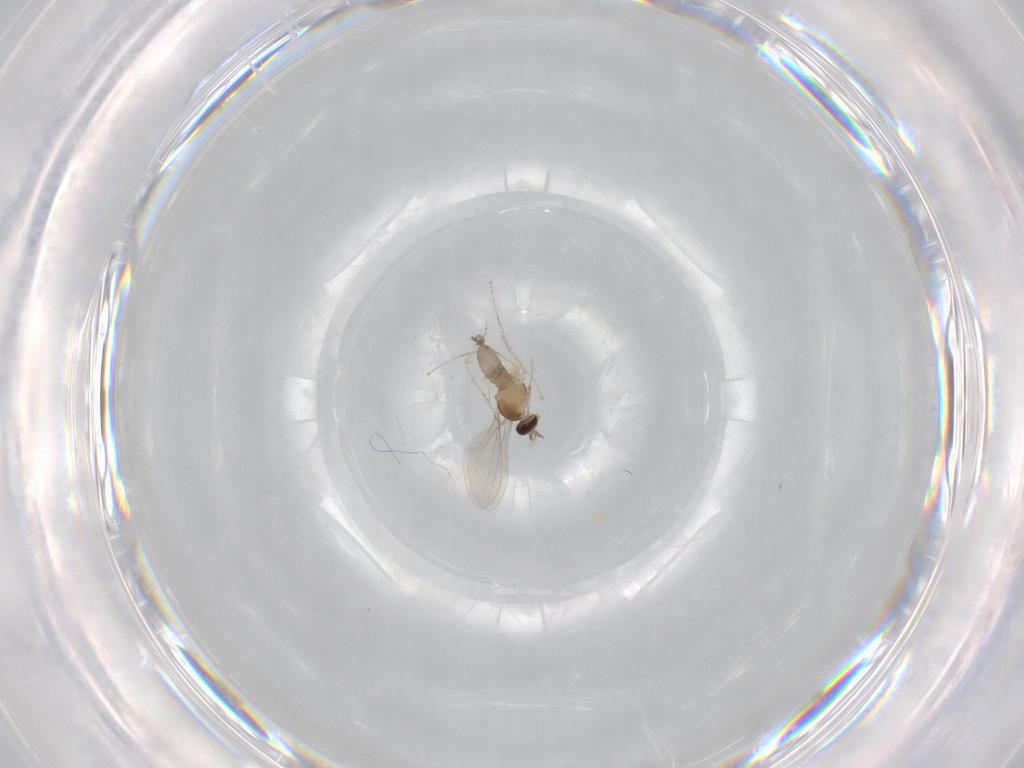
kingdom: Animalia
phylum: Arthropoda
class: Insecta
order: Diptera
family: Cecidomyiidae
